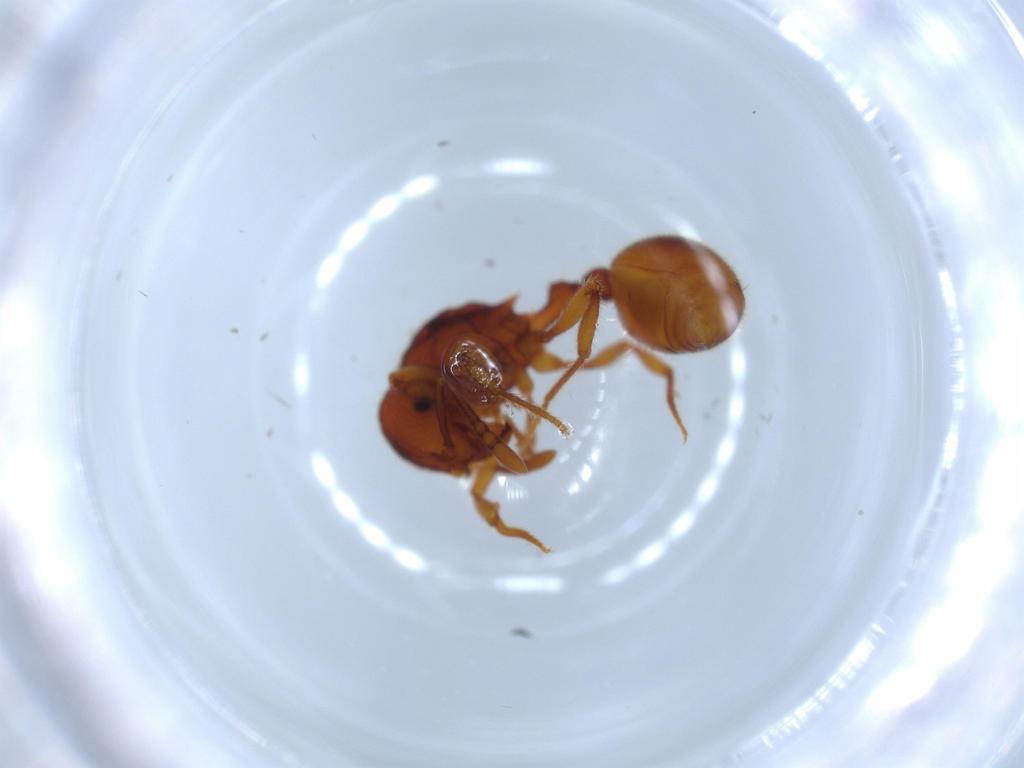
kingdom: Animalia
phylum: Arthropoda
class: Insecta
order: Hymenoptera
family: Formicidae
